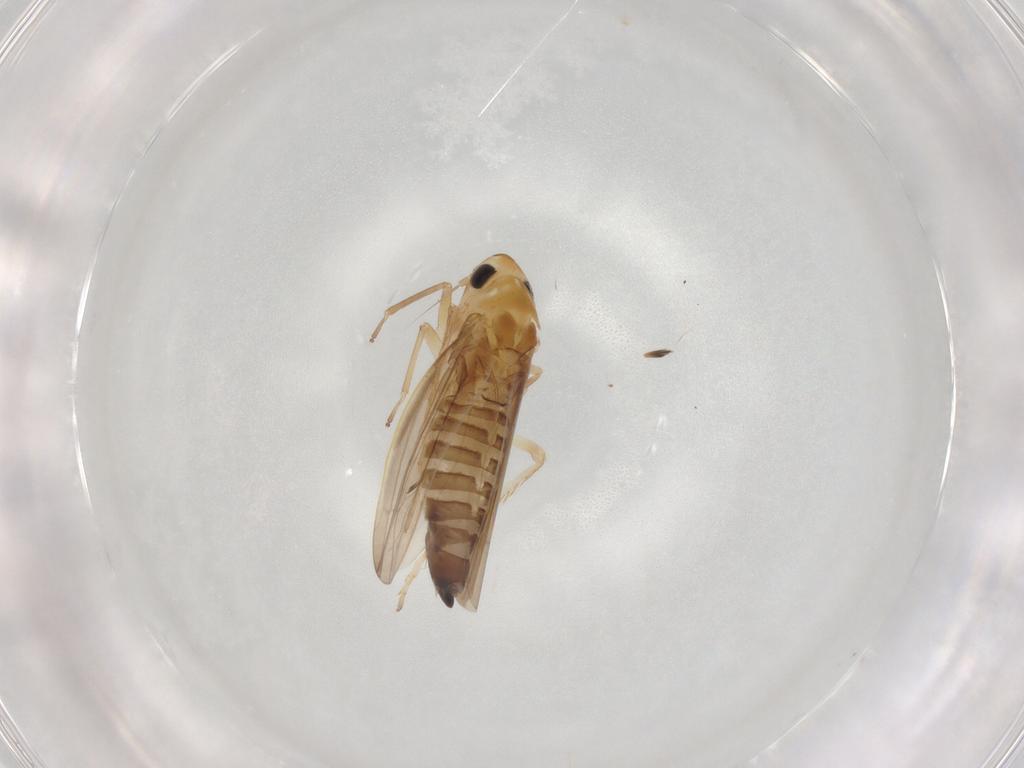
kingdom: Animalia
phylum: Arthropoda
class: Insecta
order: Hemiptera
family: Cicadellidae
